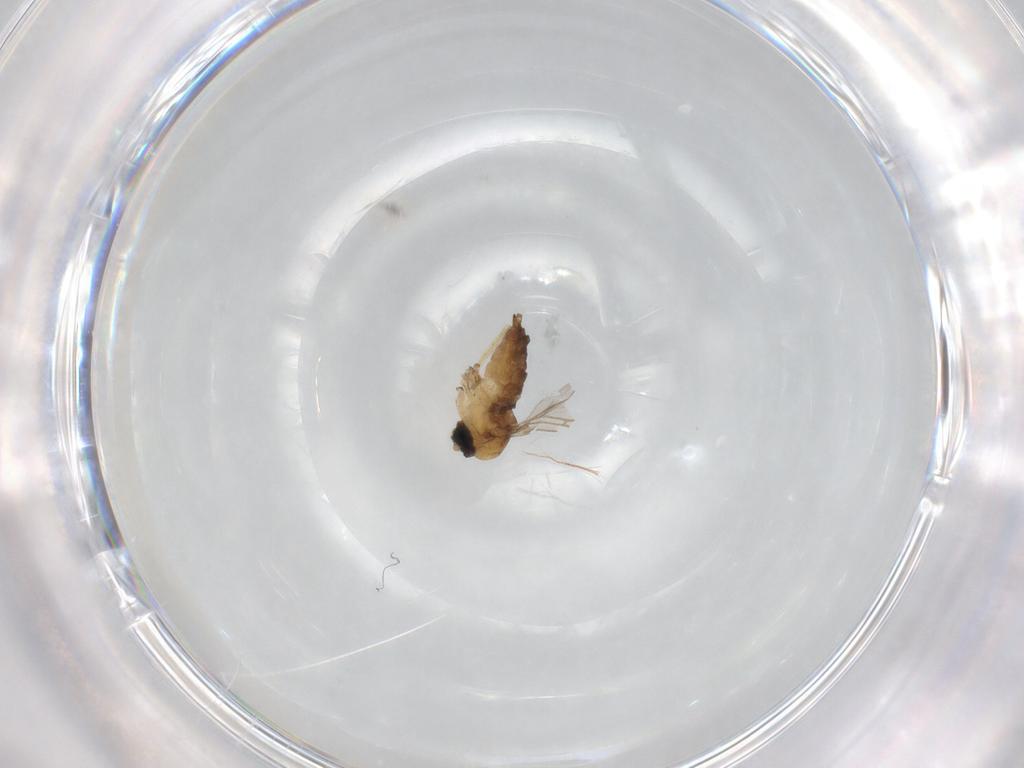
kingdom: Animalia
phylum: Arthropoda
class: Insecta
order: Diptera
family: Sciaridae
